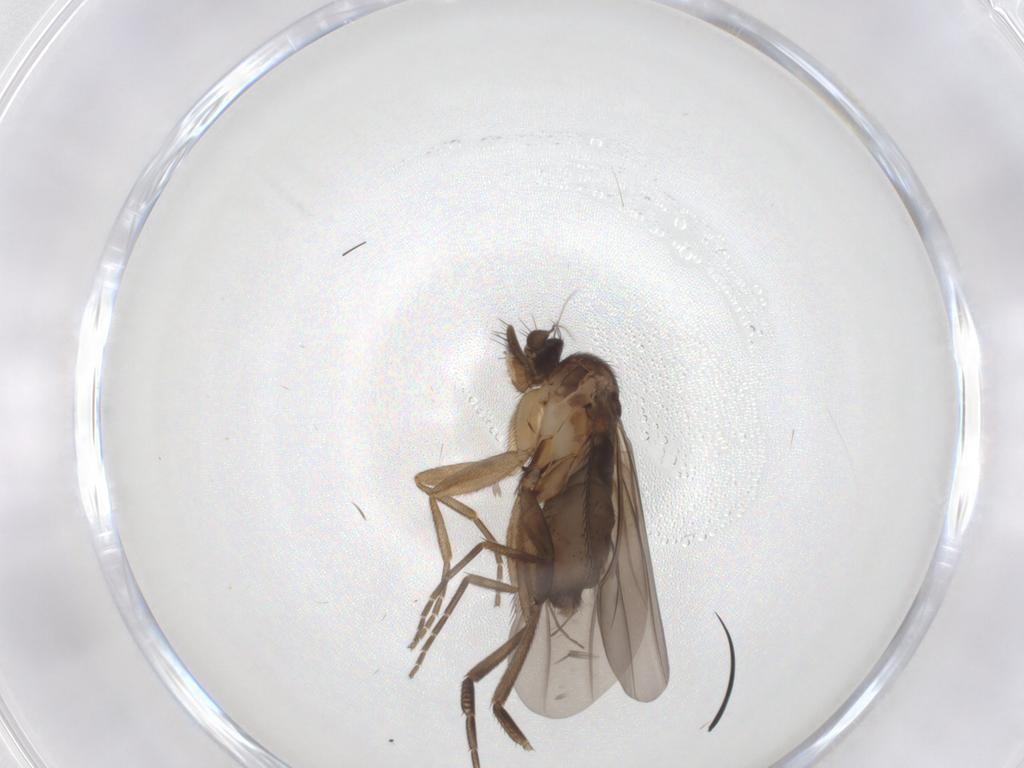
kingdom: Animalia
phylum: Arthropoda
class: Insecta
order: Diptera
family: Phoridae
